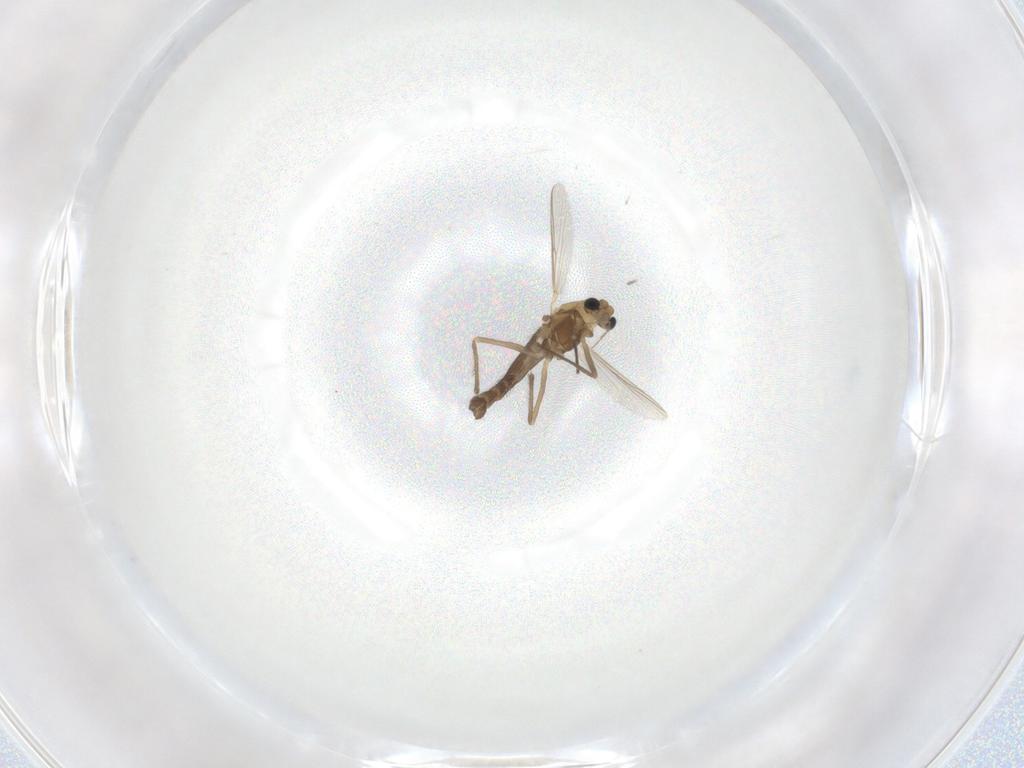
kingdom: Animalia
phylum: Arthropoda
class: Insecta
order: Diptera
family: Chironomidae
